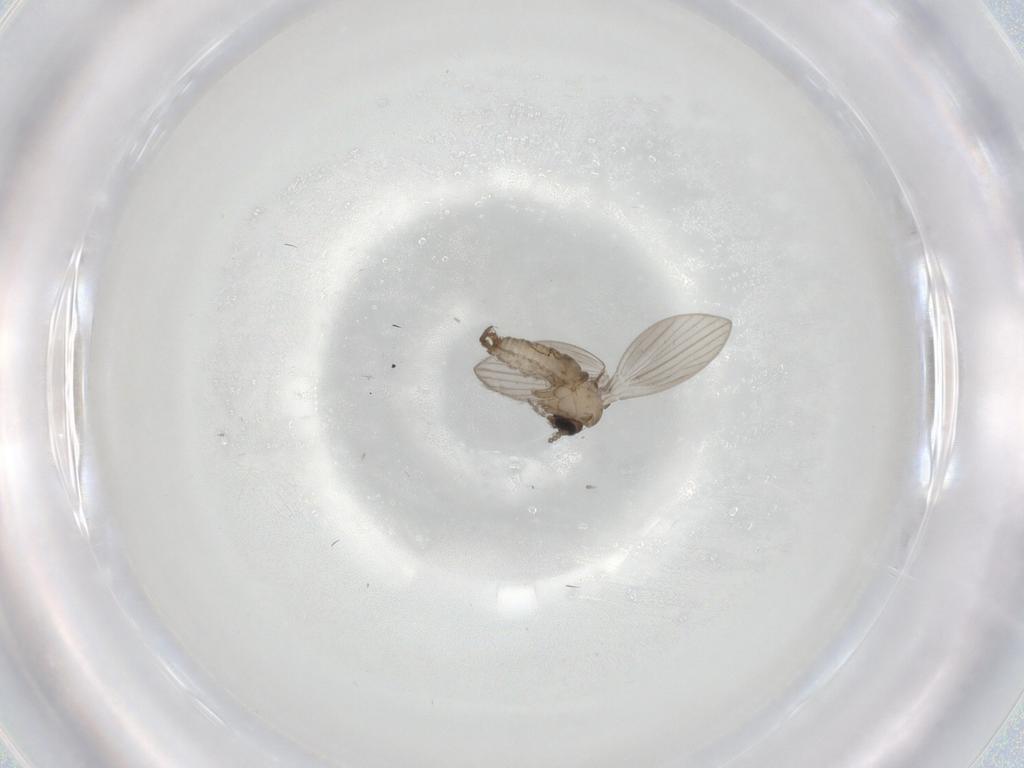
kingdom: Animalia
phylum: Arthropoda
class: Insecta
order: Diptera
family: Psychodidae
